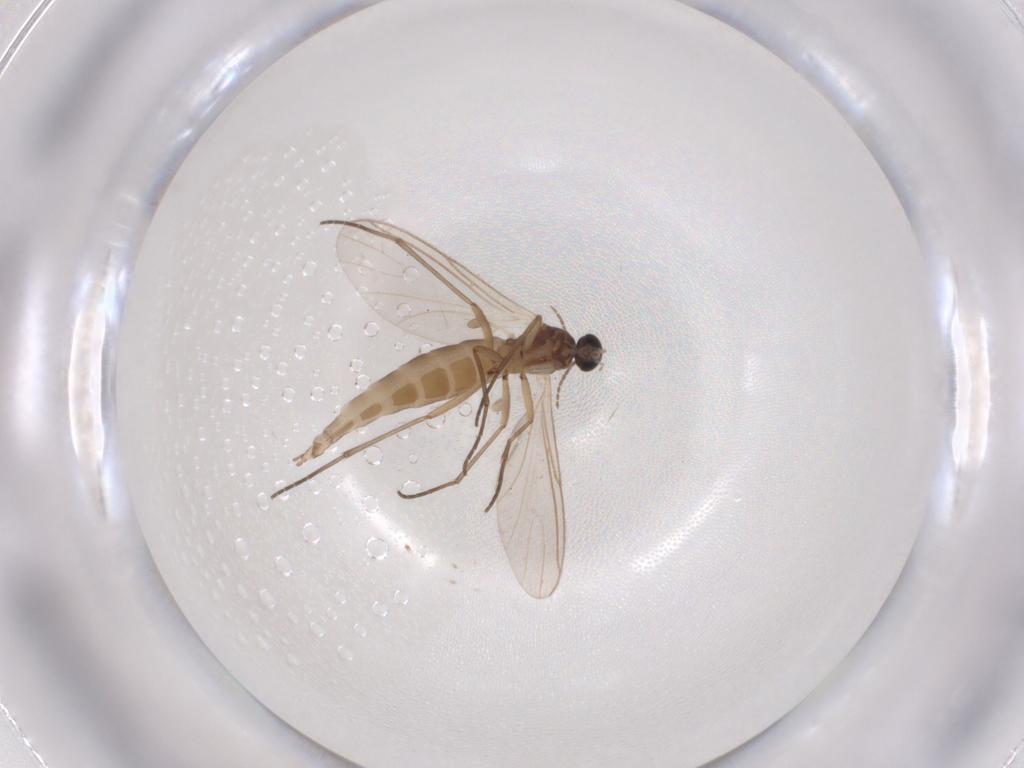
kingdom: Animalia
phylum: Arthropoda
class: Insecta
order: Diptera
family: Sciaridae
